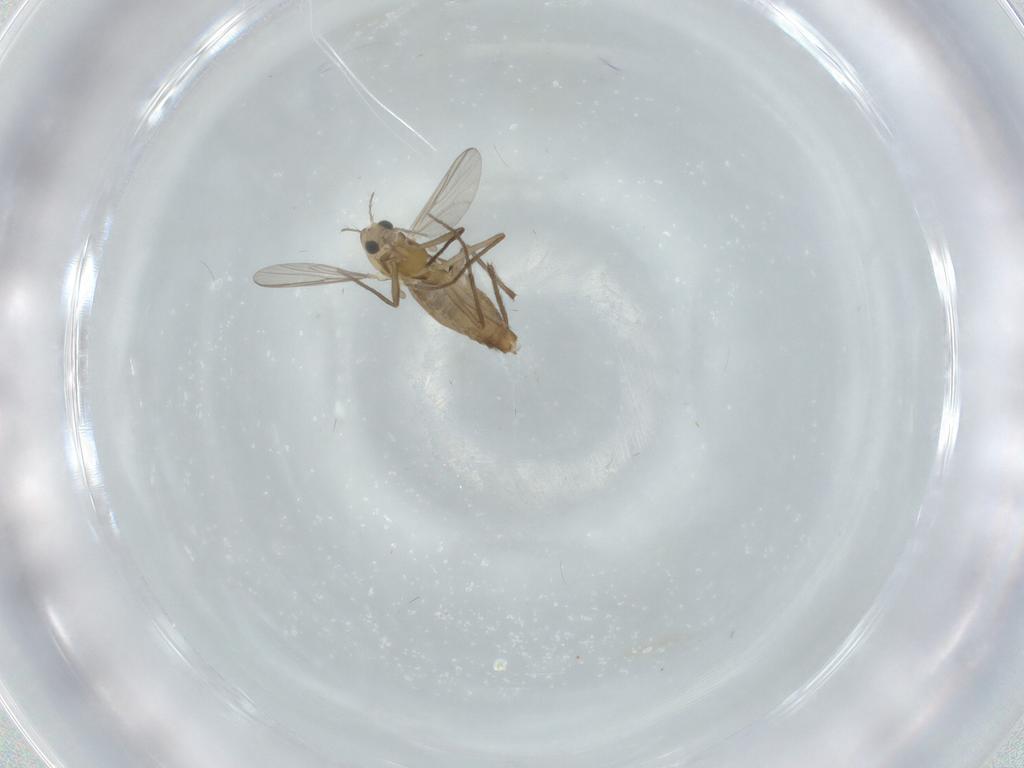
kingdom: Animalia
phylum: Arthropoda
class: Insecta
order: Diptera
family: Chironomidae
